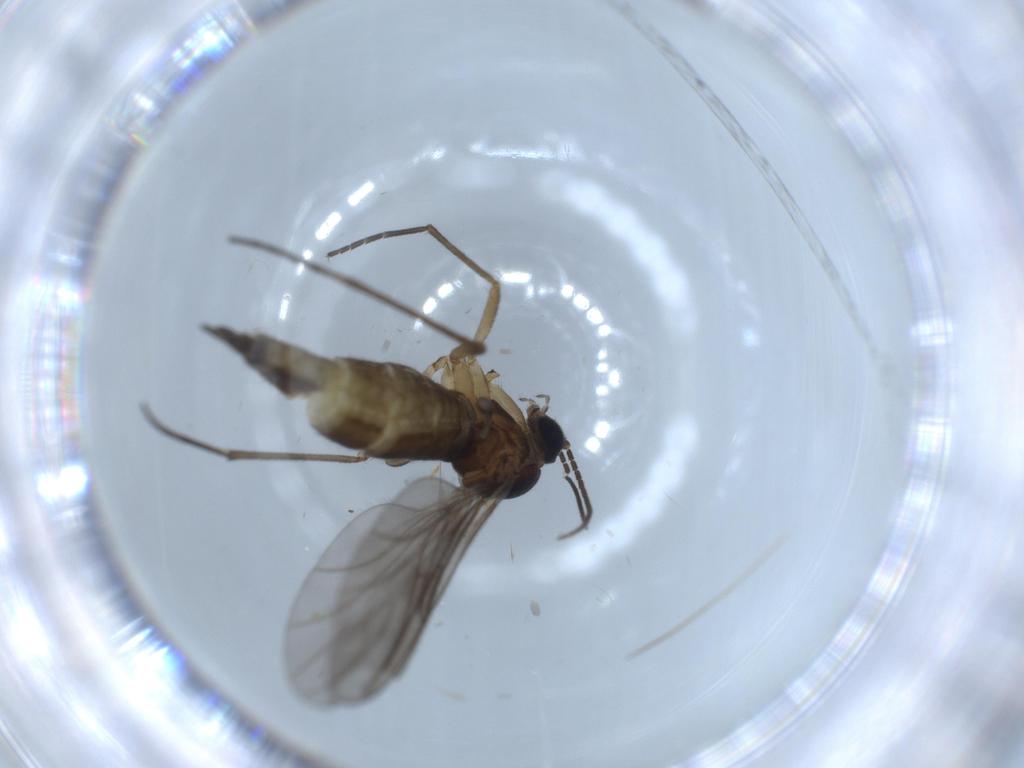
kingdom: Animalia
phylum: Arthropoda
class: Insecta
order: Diptera
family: Sciaridae
